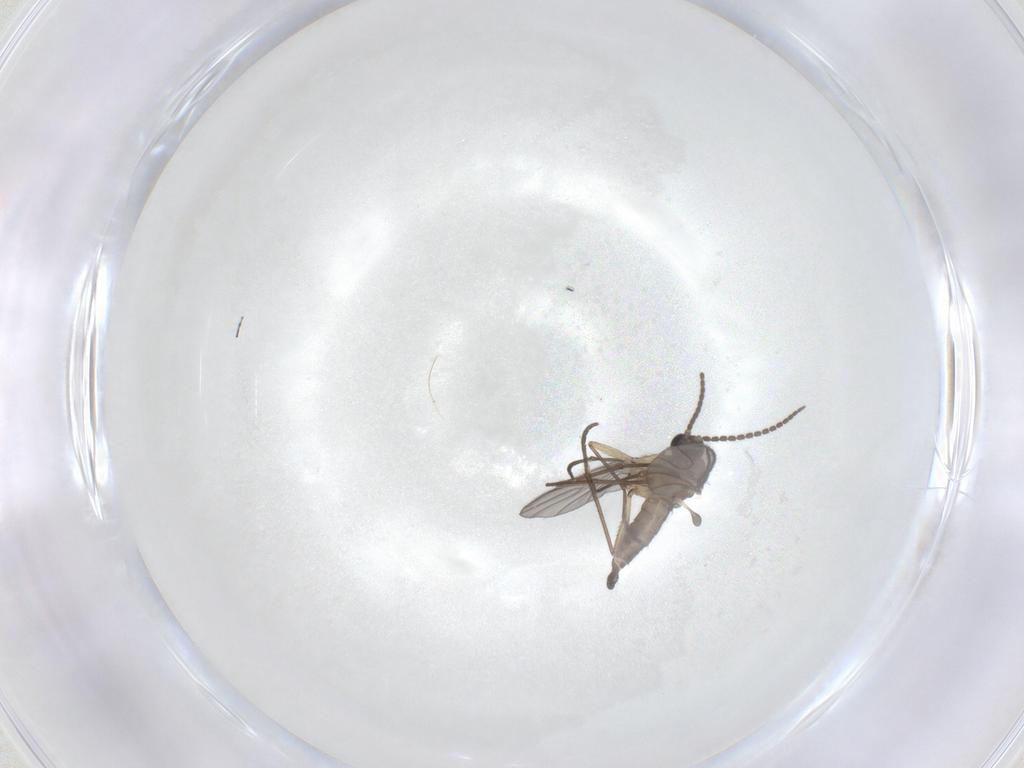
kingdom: Animalia
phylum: Arthropoda
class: Insecta
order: Diptera
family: Sciaridae
